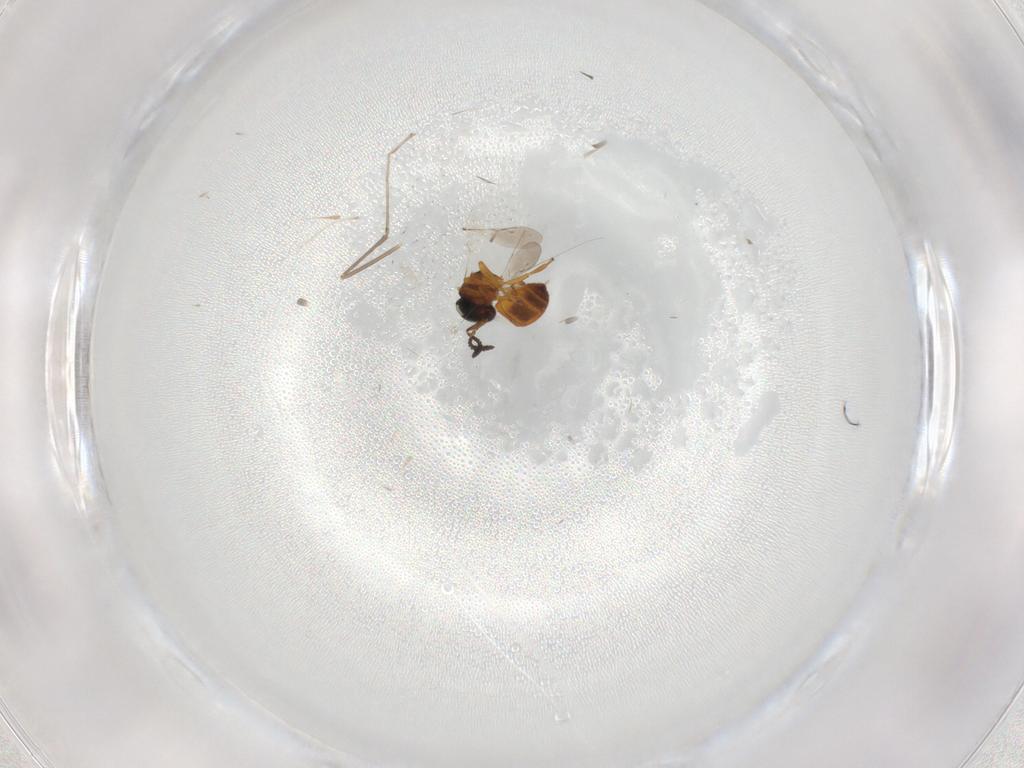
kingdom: Animalia
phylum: Arthropoda
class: Insecta
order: Hymenoptera
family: Scelionidae
